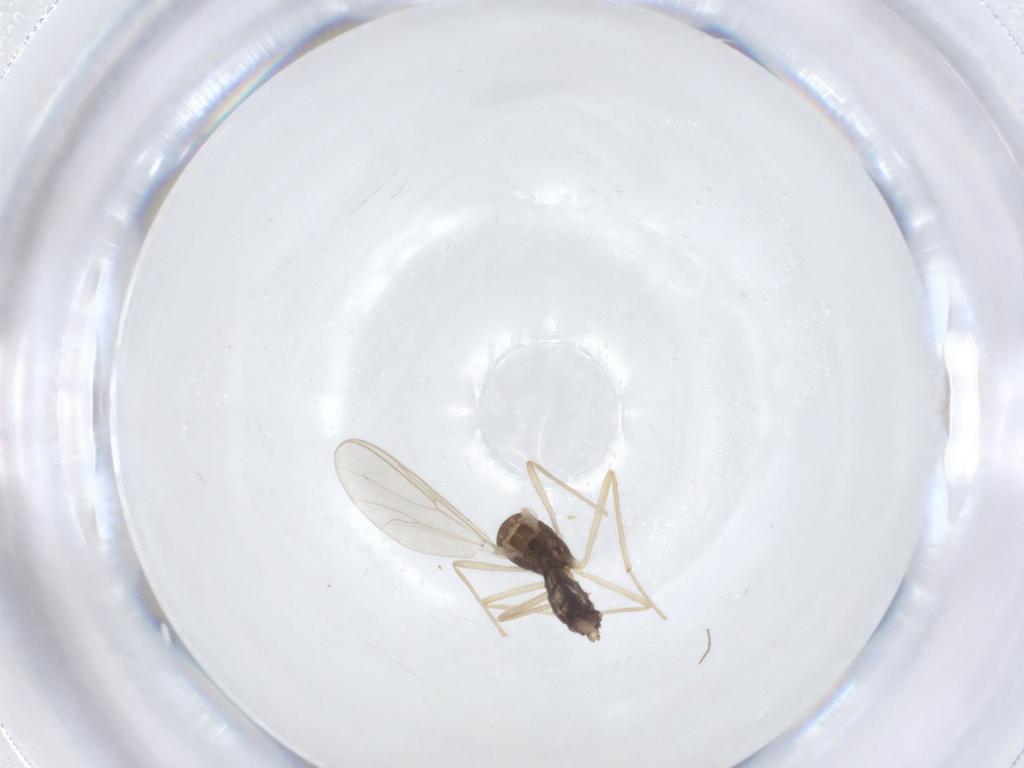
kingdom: Animalia
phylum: Arthropoda
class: Insecta
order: Diptera
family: Chironomidae
